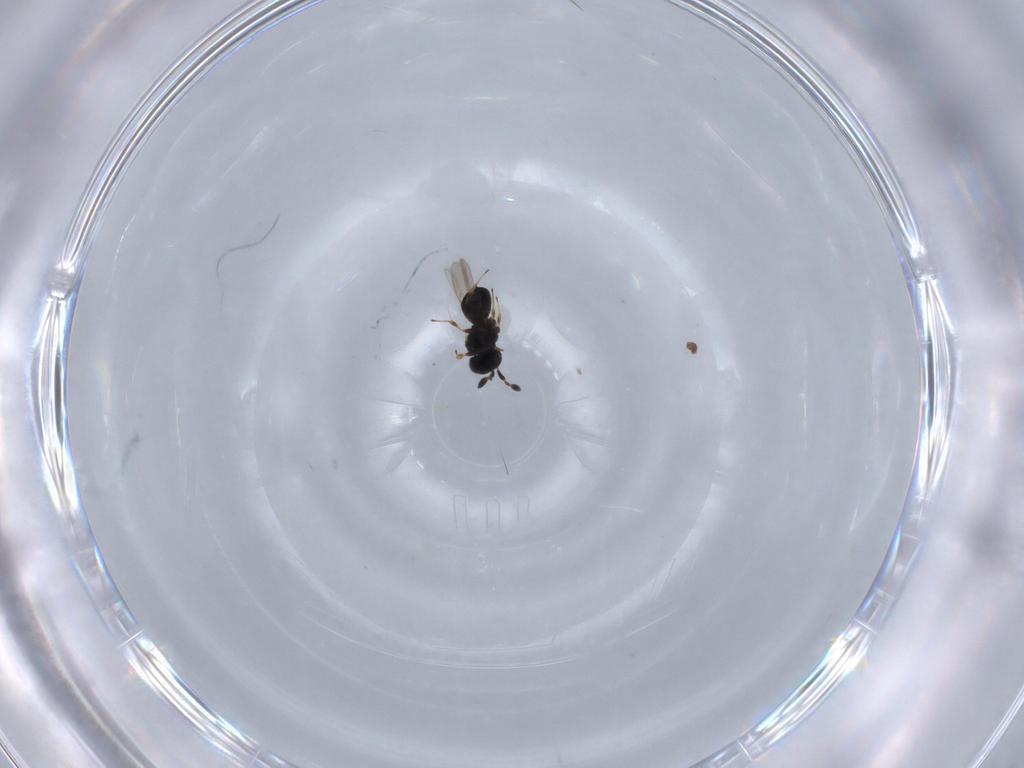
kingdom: Animalia
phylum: Arthropoda
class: Insecta
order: Hymenoptera
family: Scelionidae
